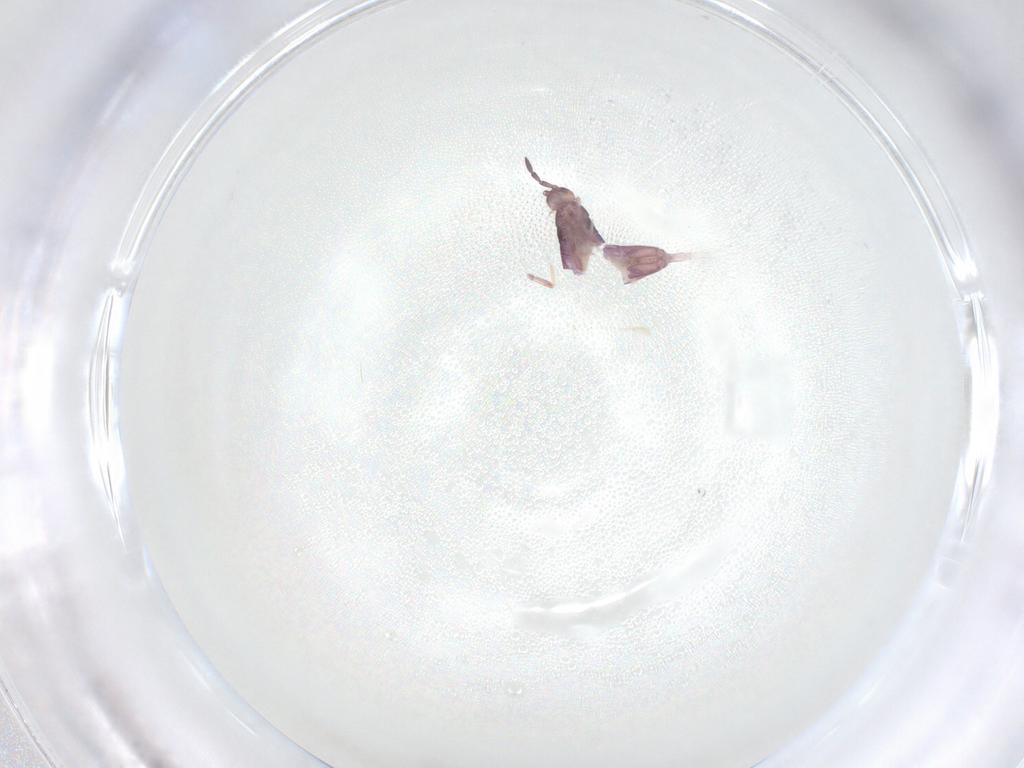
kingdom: Animalia
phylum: Arthropoda
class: Collembola
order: Entomobryomorpha
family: Entomobryidae
